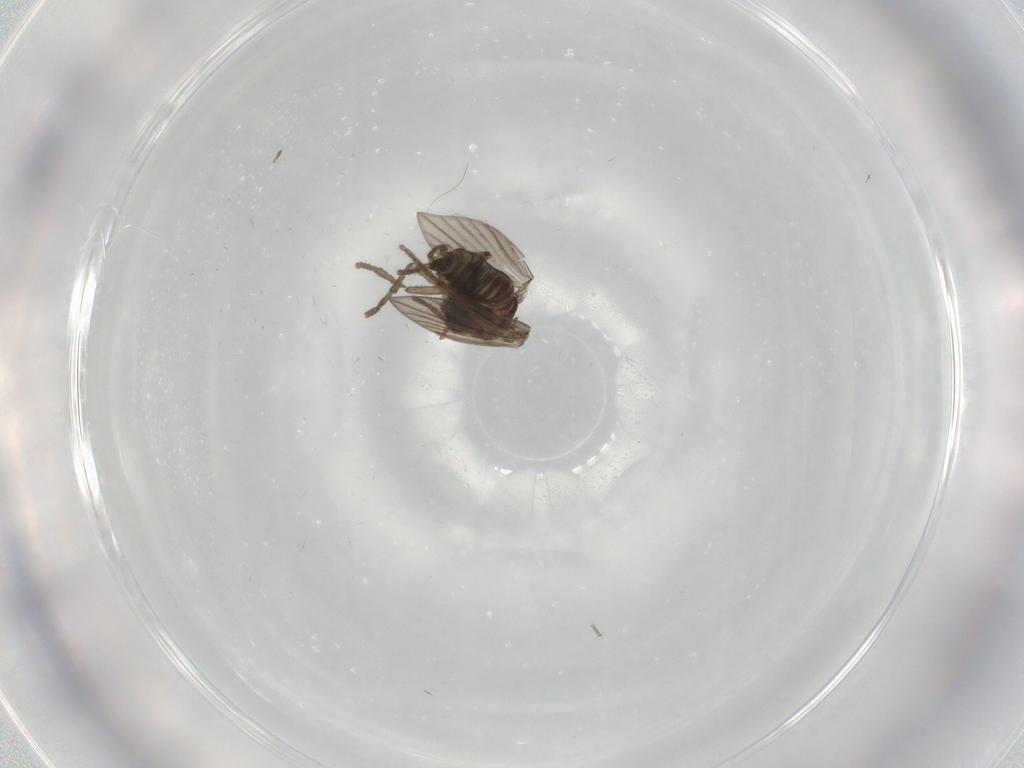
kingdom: Animalia
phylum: Arthropoda
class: Insecta
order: Diptera
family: Psychodidae
